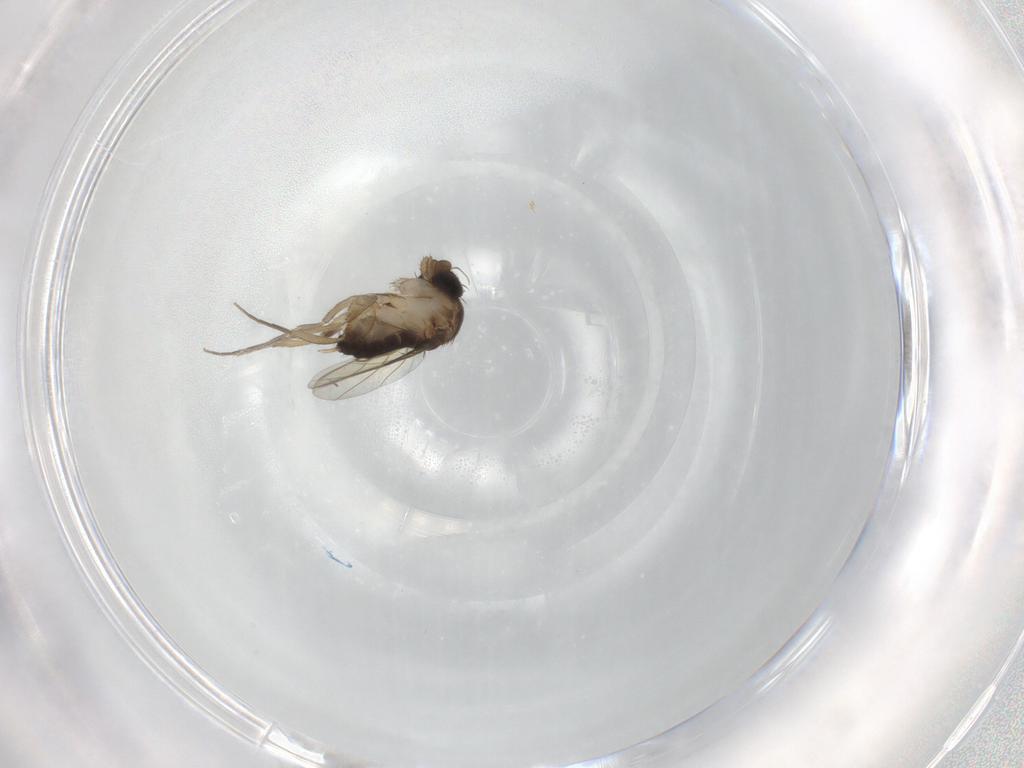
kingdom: Animalia
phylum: Arthropoda
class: Insecta
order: Diptera
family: Phoridae
